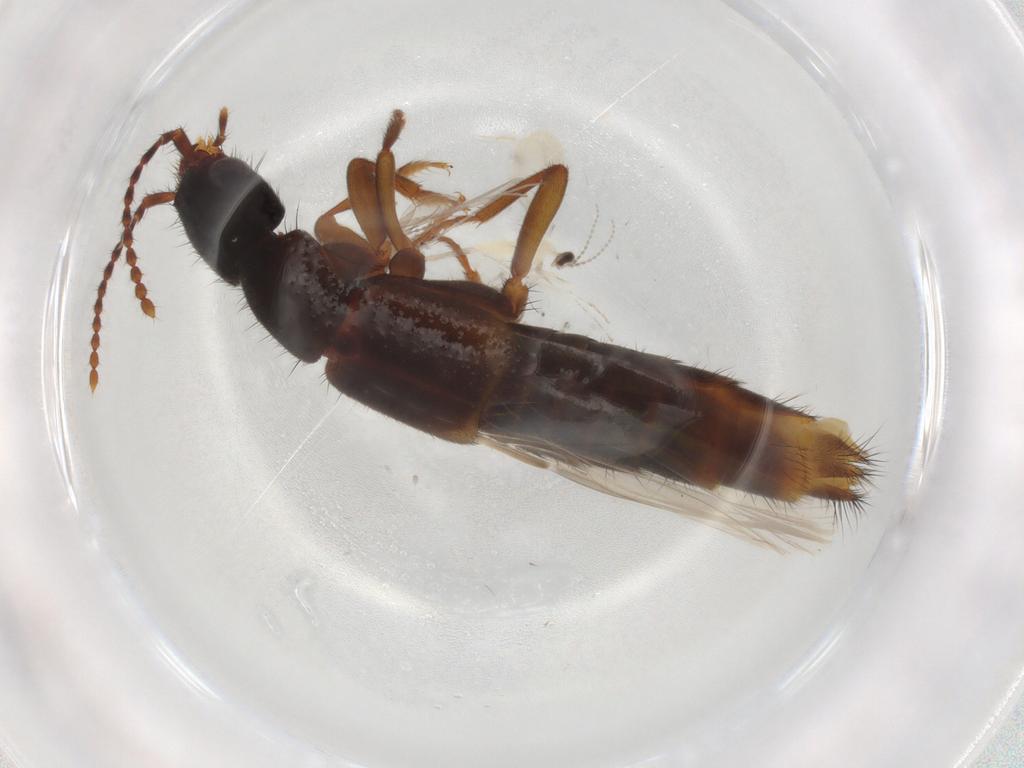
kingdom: Animalia
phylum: Arthropoda
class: Insecta
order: Coleoptera
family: Staphylinidae
